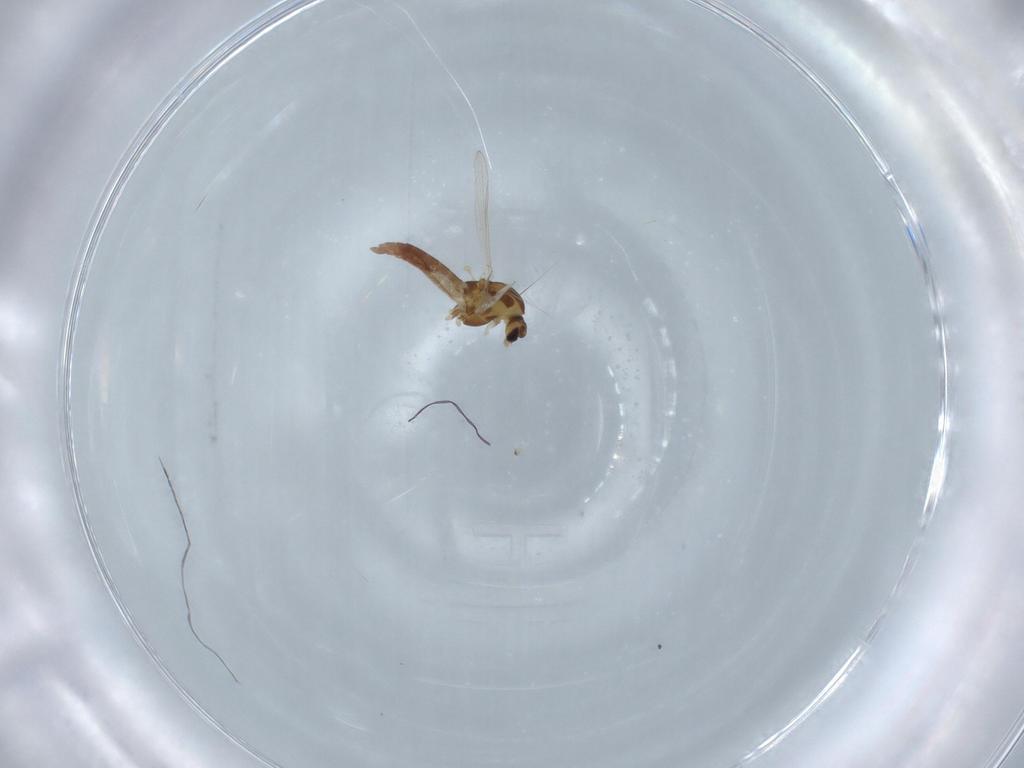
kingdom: Animalia
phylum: Arthropoda
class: Insecta
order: Diptera
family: Chironomidae
